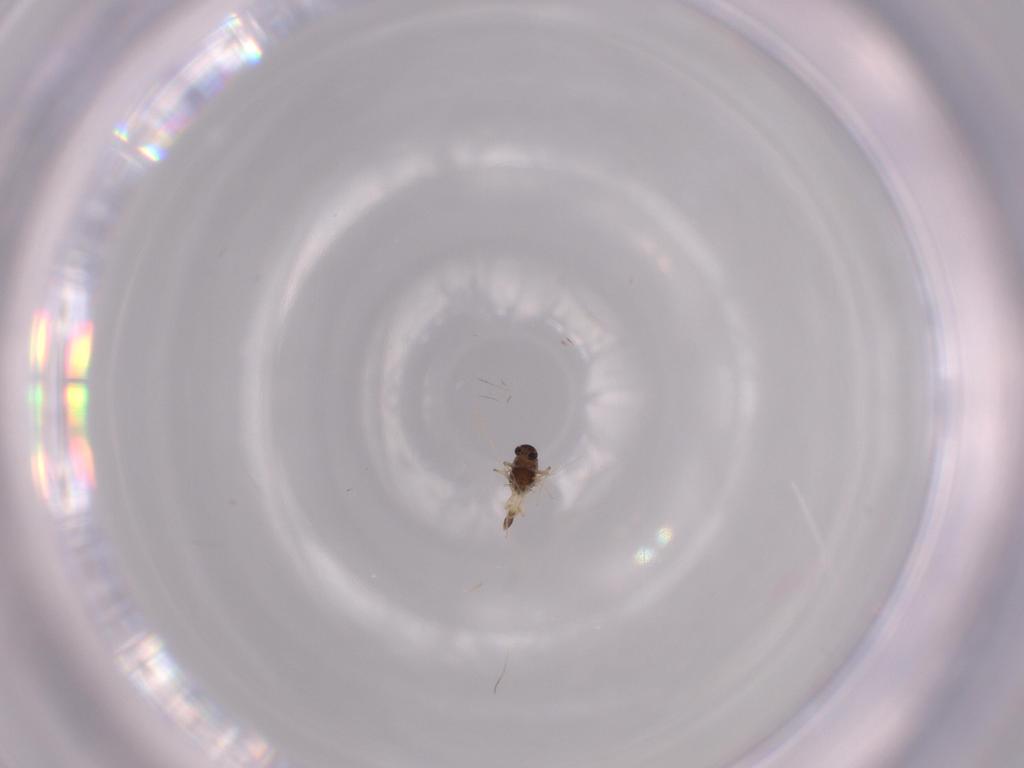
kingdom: Animalia
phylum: Arthropoda
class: Insecta
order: Diptera
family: Chironomidae
